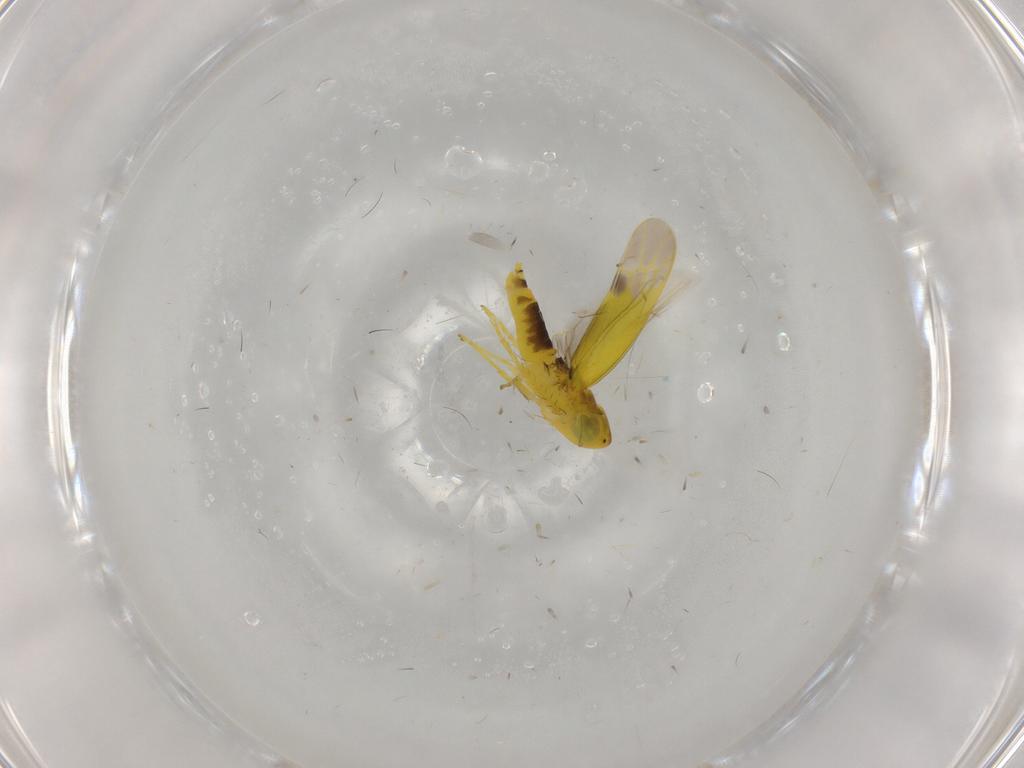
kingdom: Animalia
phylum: Arthropoda
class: Insecta
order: Hemiptera
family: Cicadellidae
